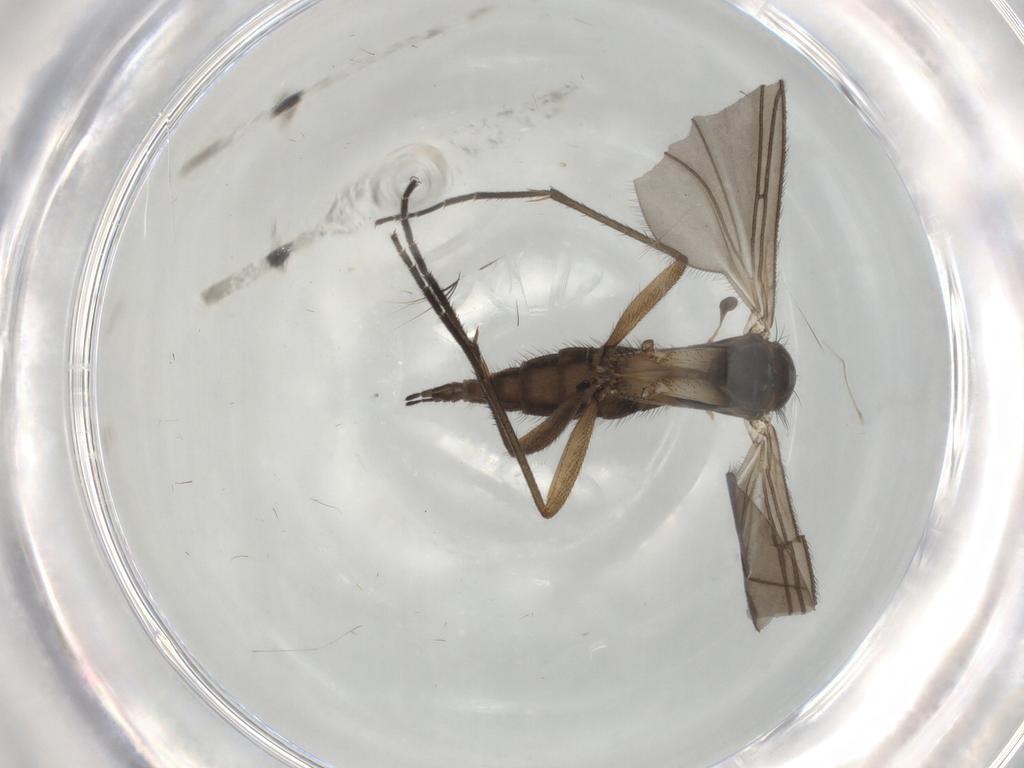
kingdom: Animalia
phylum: Arthropoda
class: Insecta
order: Diptera
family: Sciaridae
